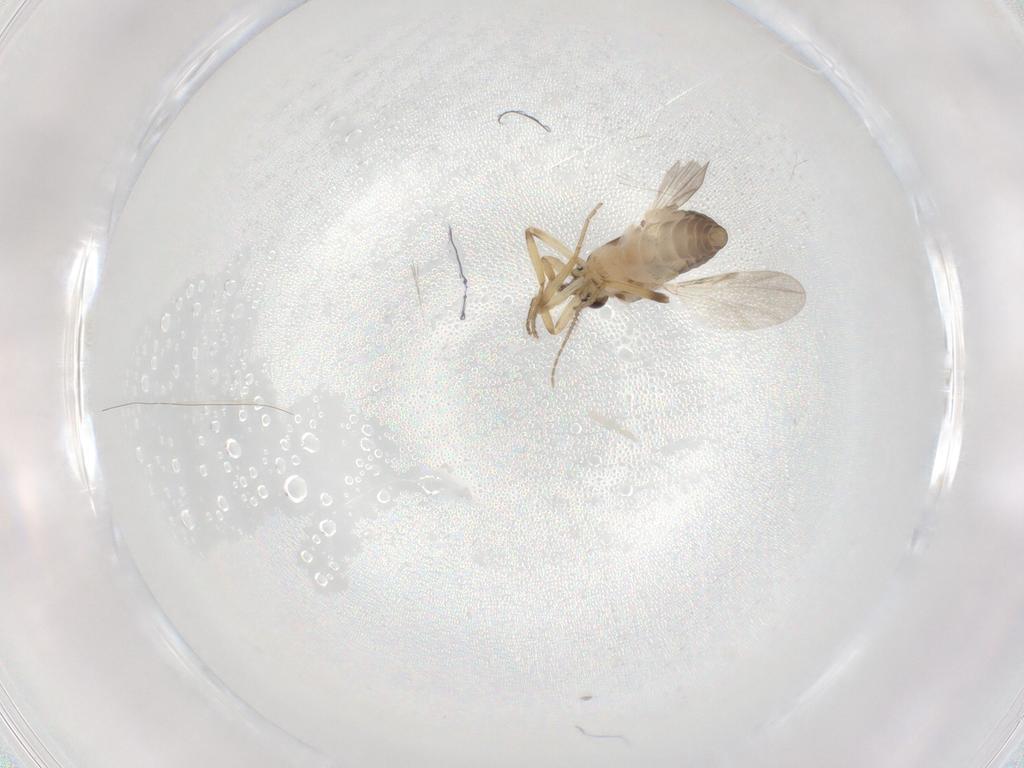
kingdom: Animalia
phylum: Arthropoda
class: Insecta
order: Diptera
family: Cecidomyiidae
